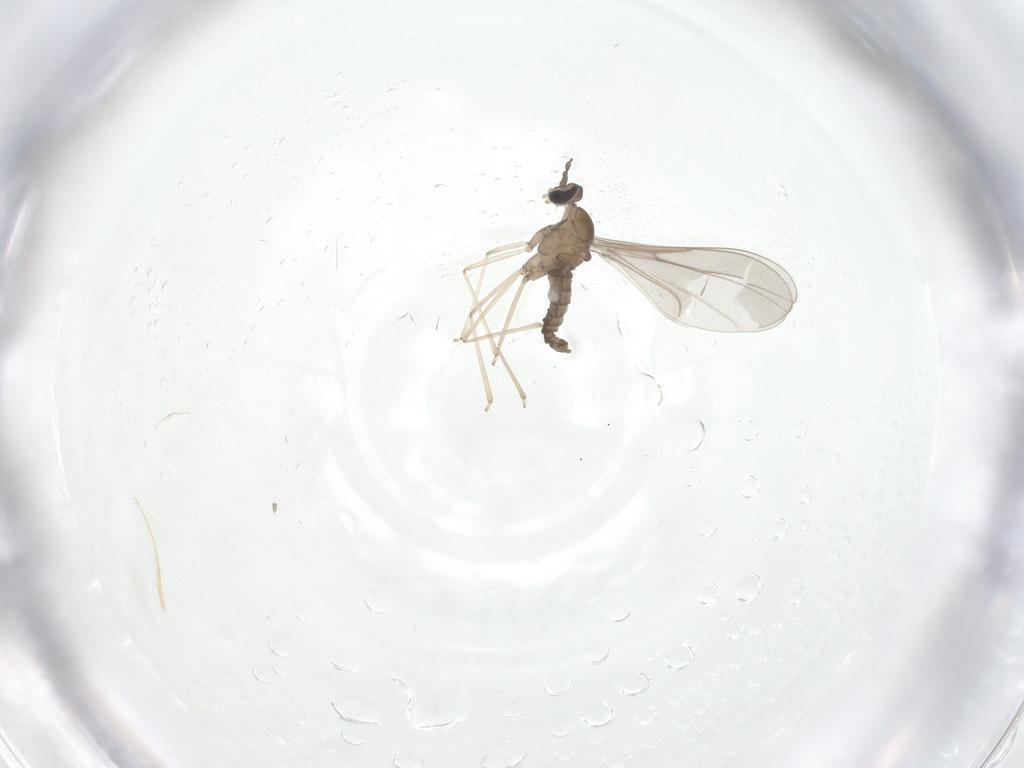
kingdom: Animalia
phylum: Arthropoda
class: Insecta
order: Diptera
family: Cecidomyiidae
